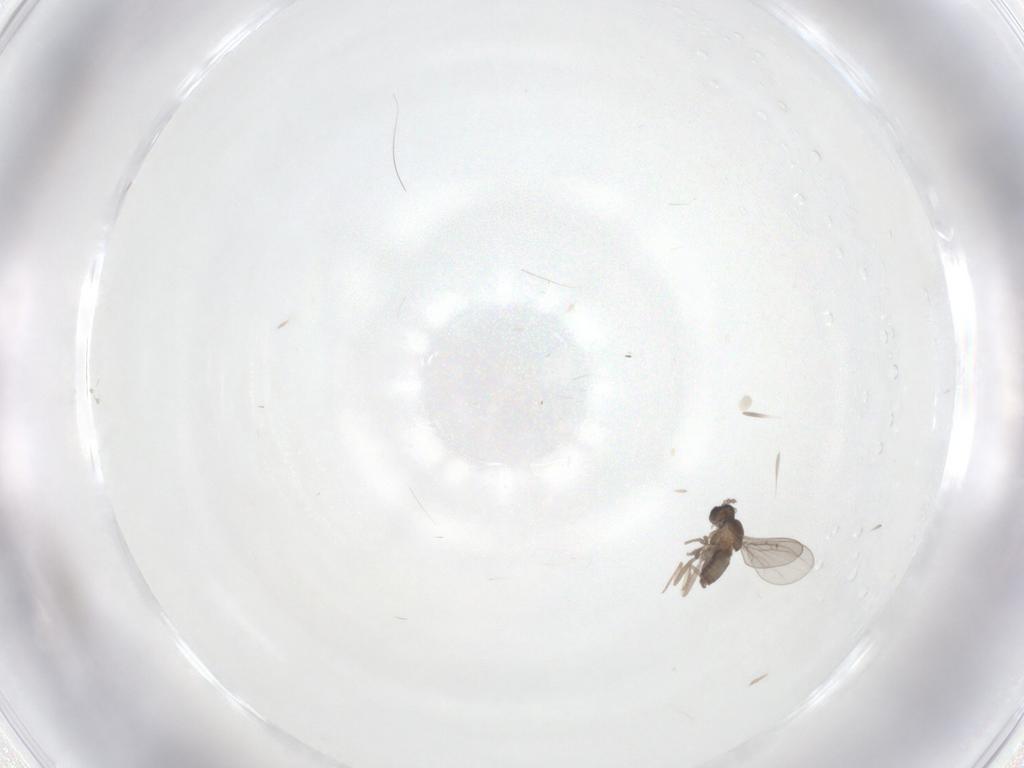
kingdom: Animalia
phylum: Arthropoda
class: Insecta
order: Diptera
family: Cecidomyiidae
